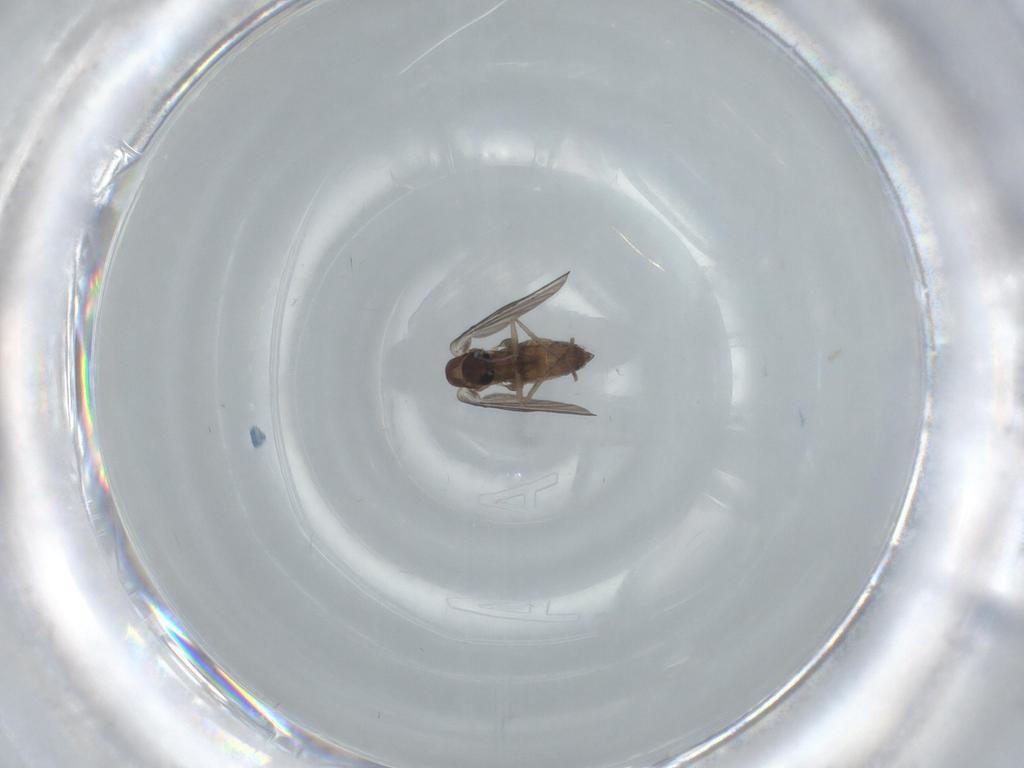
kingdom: Animalia
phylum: Arthropoda
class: Insecta
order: Diptera
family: Psychodidae
